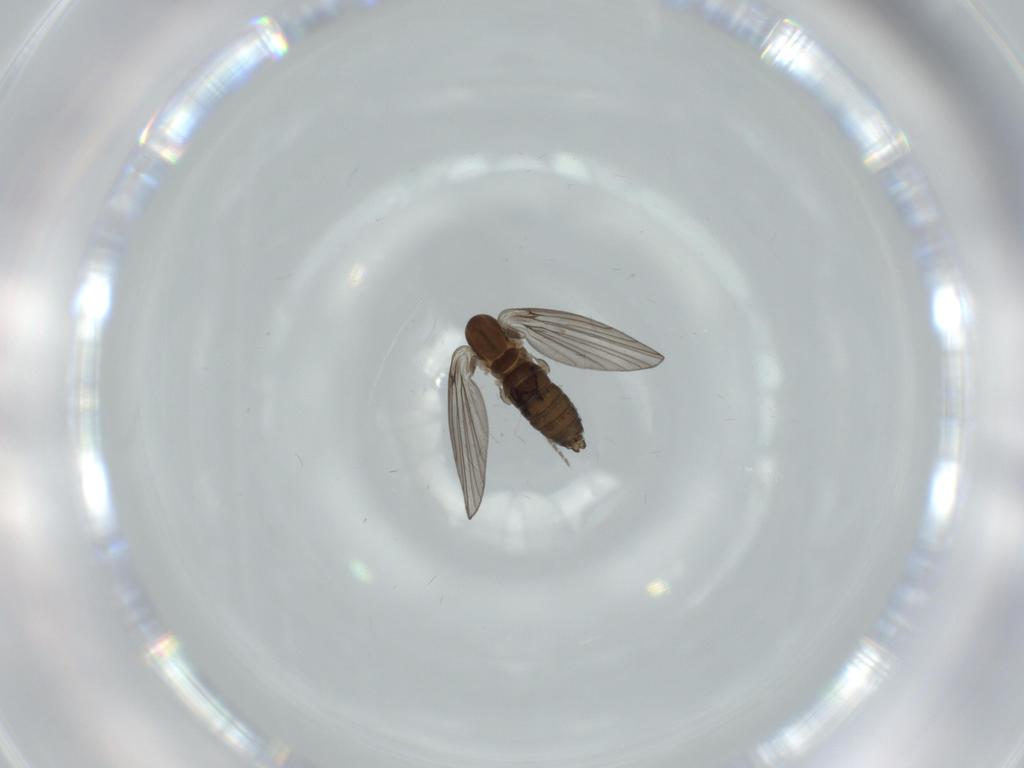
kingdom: Animalia
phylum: Arthropoda
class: Insecta
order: Diptera
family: Psychodidae
